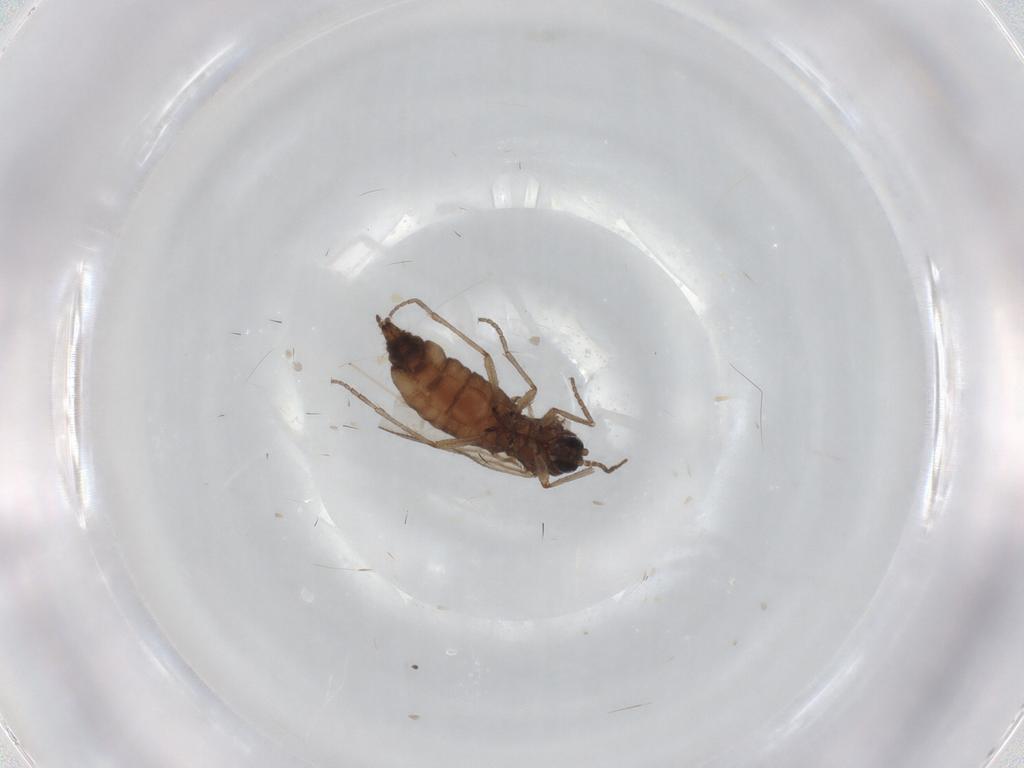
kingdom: Animalia
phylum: Arthropoda
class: Insecta
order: Diptera
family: Sciaridae
